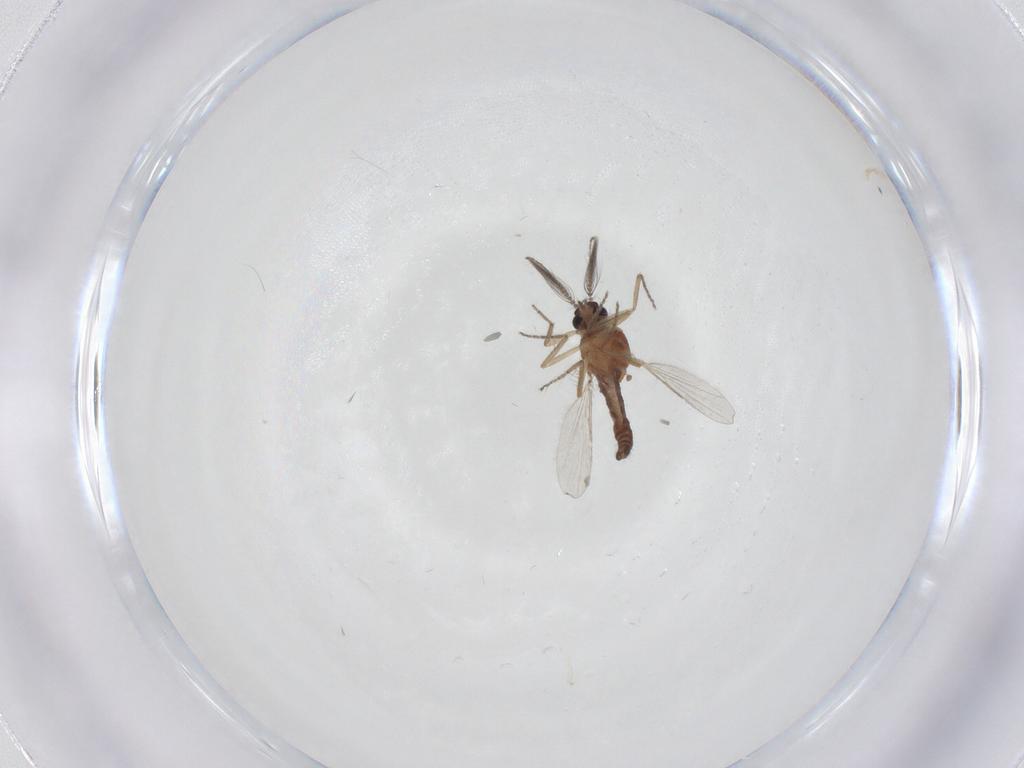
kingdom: Animalia
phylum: Arthropoda
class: Insecta
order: Diptera
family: Ceratopogonidae
